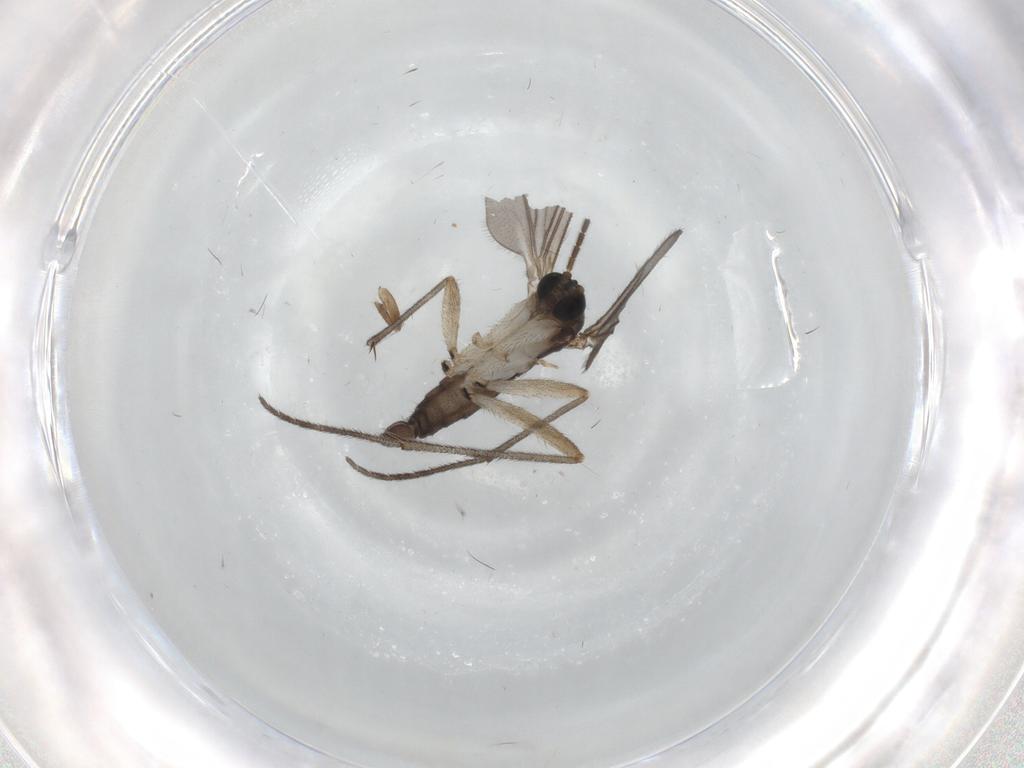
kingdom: Animalia
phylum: Arthropoda
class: Insecta
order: Diptera
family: Sciaridae
